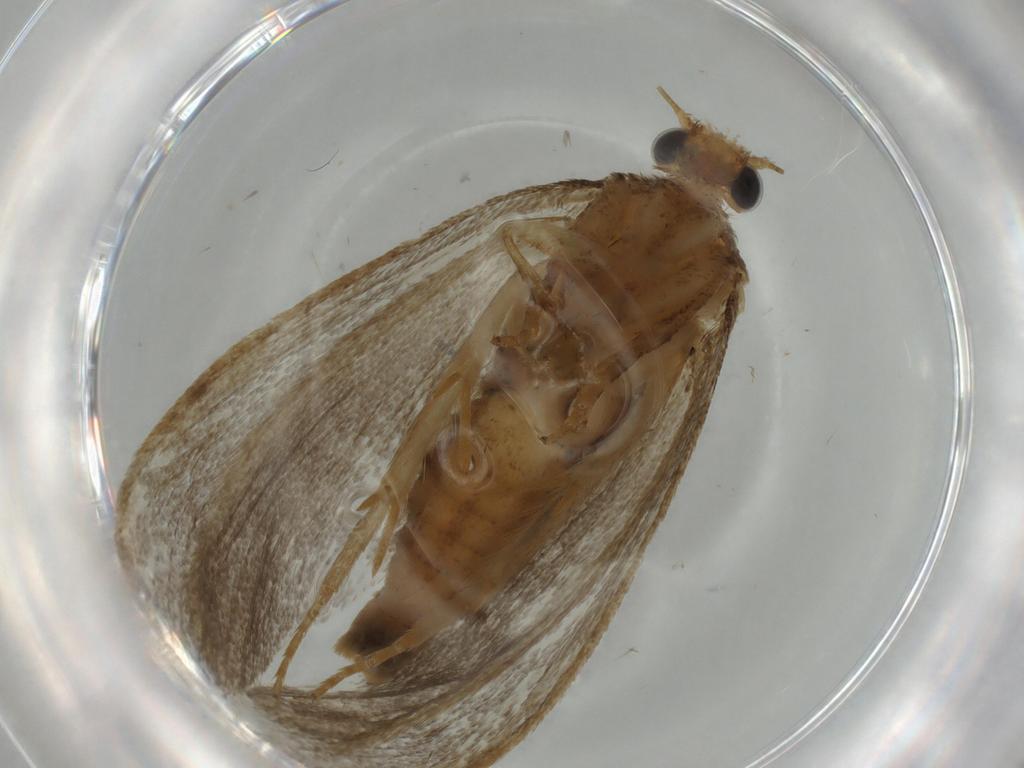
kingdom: Animalia
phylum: Arthropoda
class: Insecta
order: Lepidoptera
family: Tineidae
